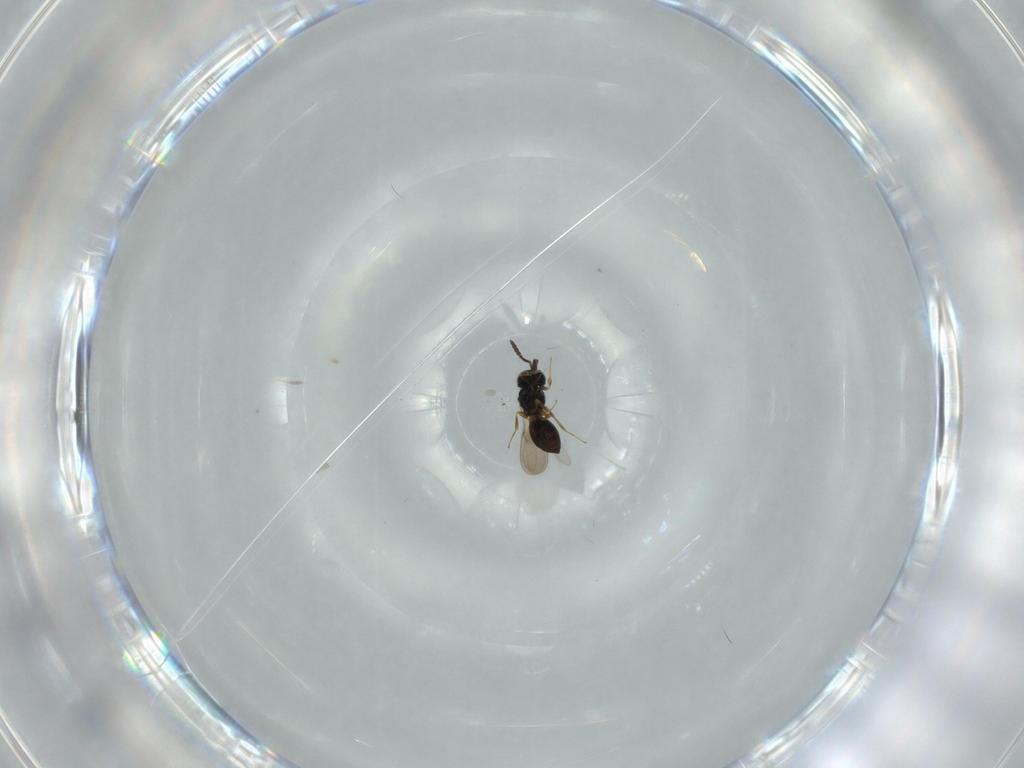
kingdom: Animalia
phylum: Arthropoda
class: Insecta
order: Hymenoptera
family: Scelionidae
